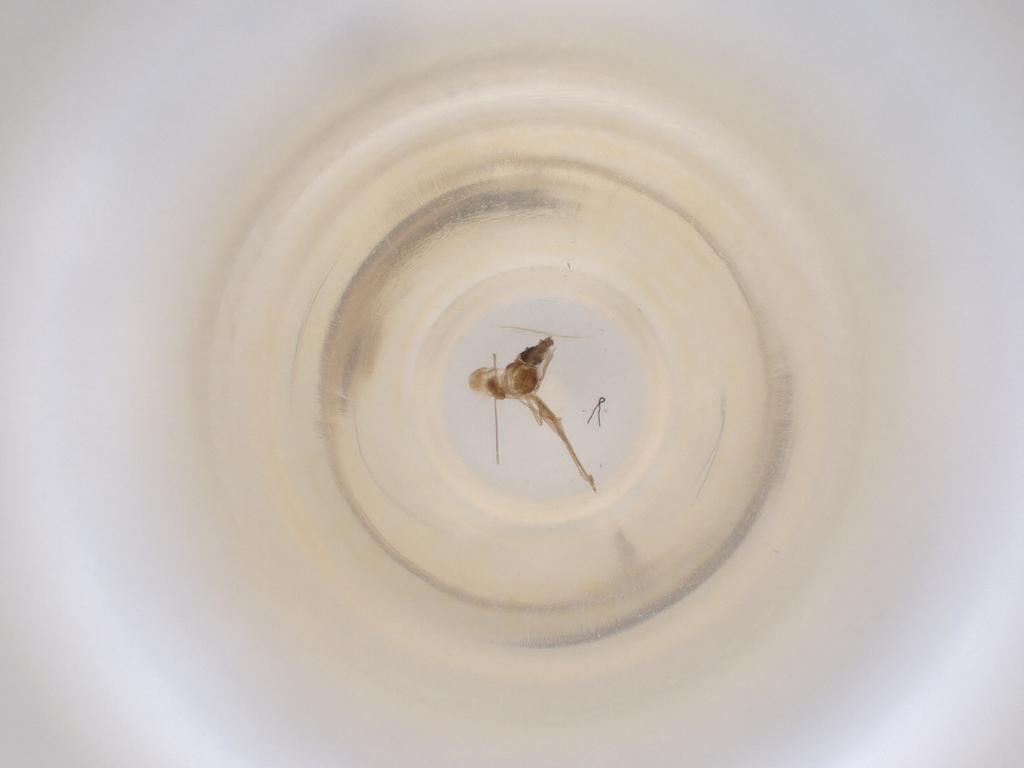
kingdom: Animalia
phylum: Arthropoda
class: Insecta
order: Diptera
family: Cecidomyiidae
